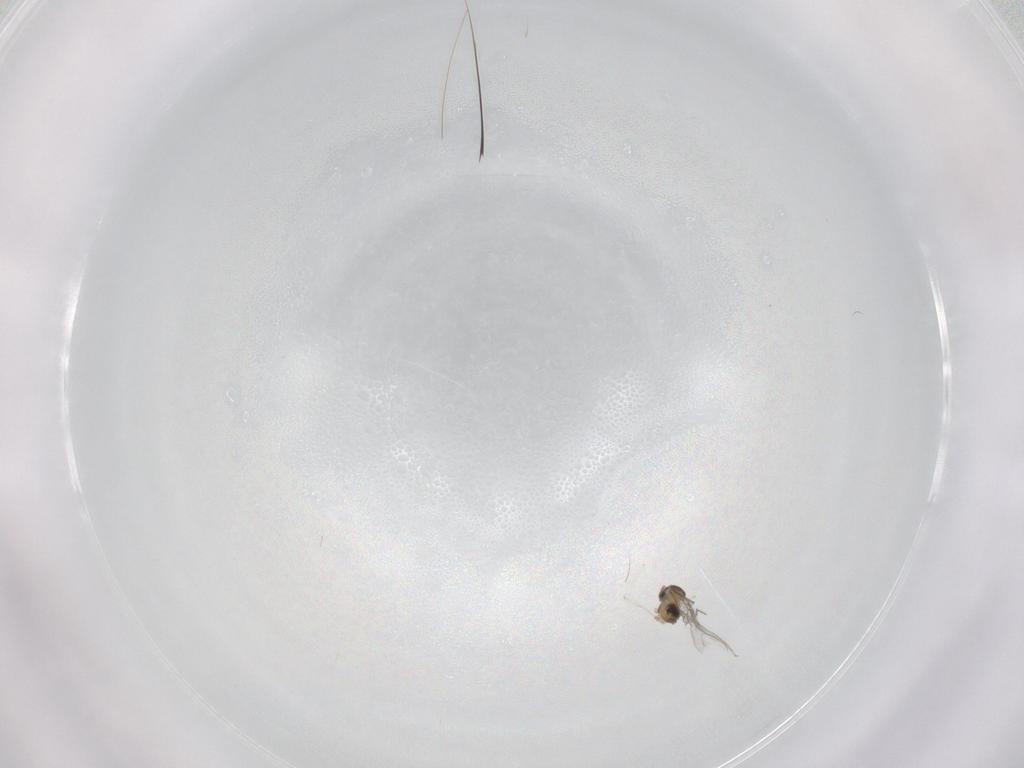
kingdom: Animalia
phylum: Arthropoda
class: Insecta
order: Diptera
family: Cecidomyiidae
